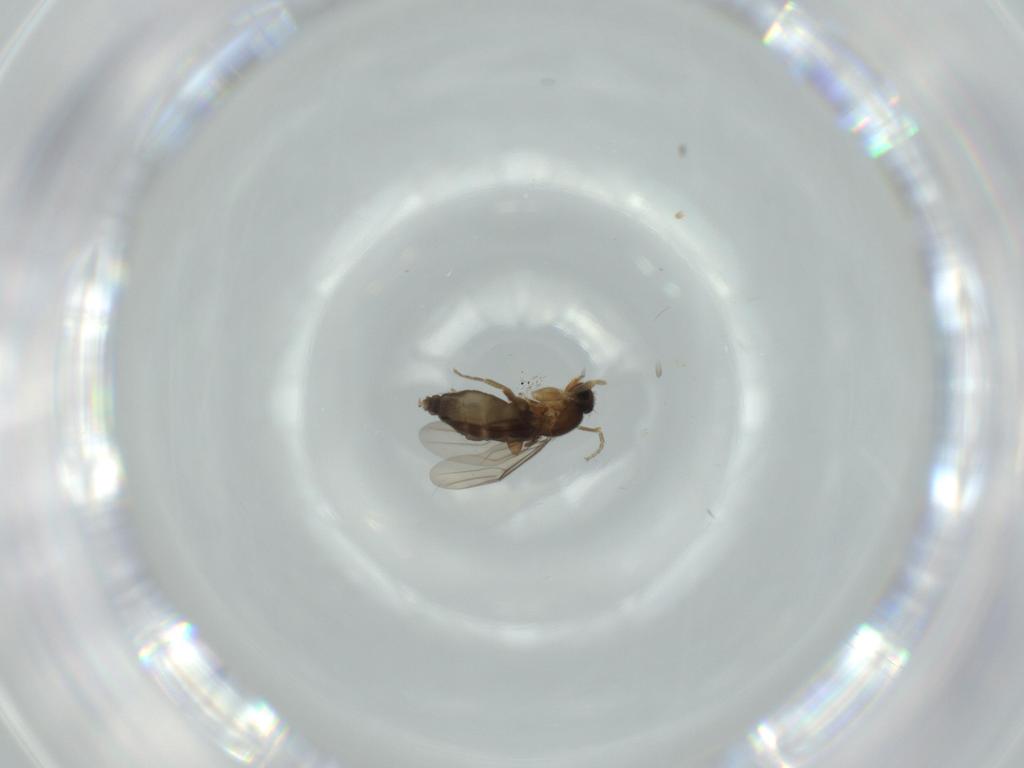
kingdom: Animalia
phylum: Arthropoda
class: Insecta
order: Diptera
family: Phoridae
